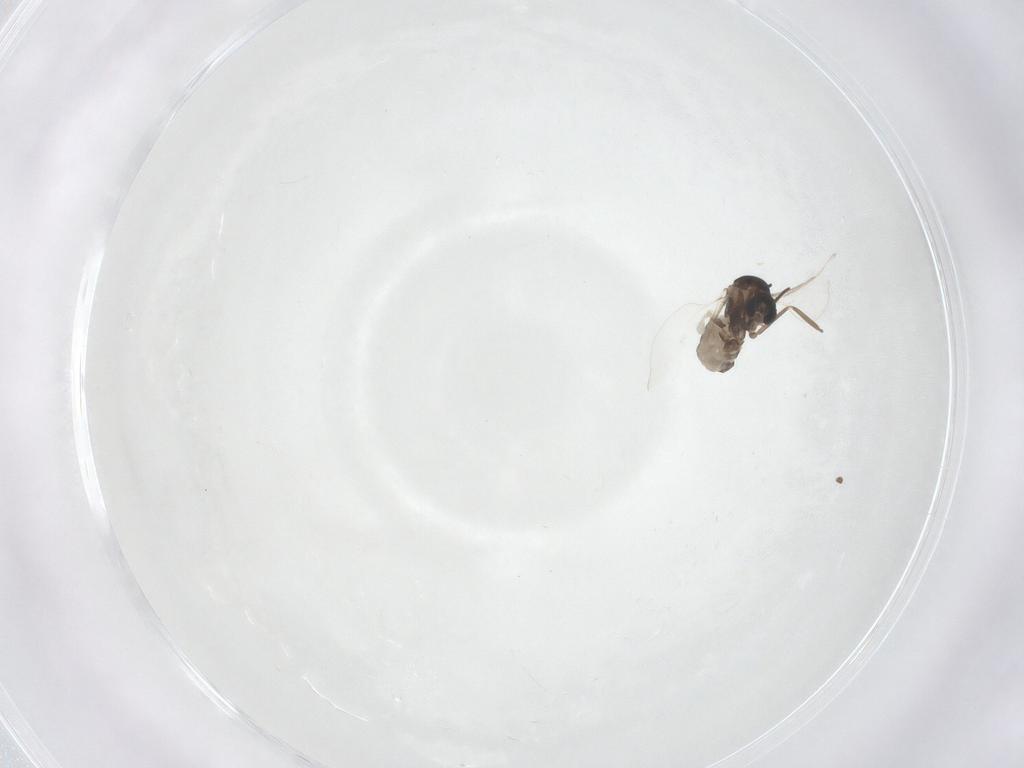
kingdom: Animalia
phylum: Arthropoda
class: Insecta
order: Diptera
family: Cecidomyiidae
